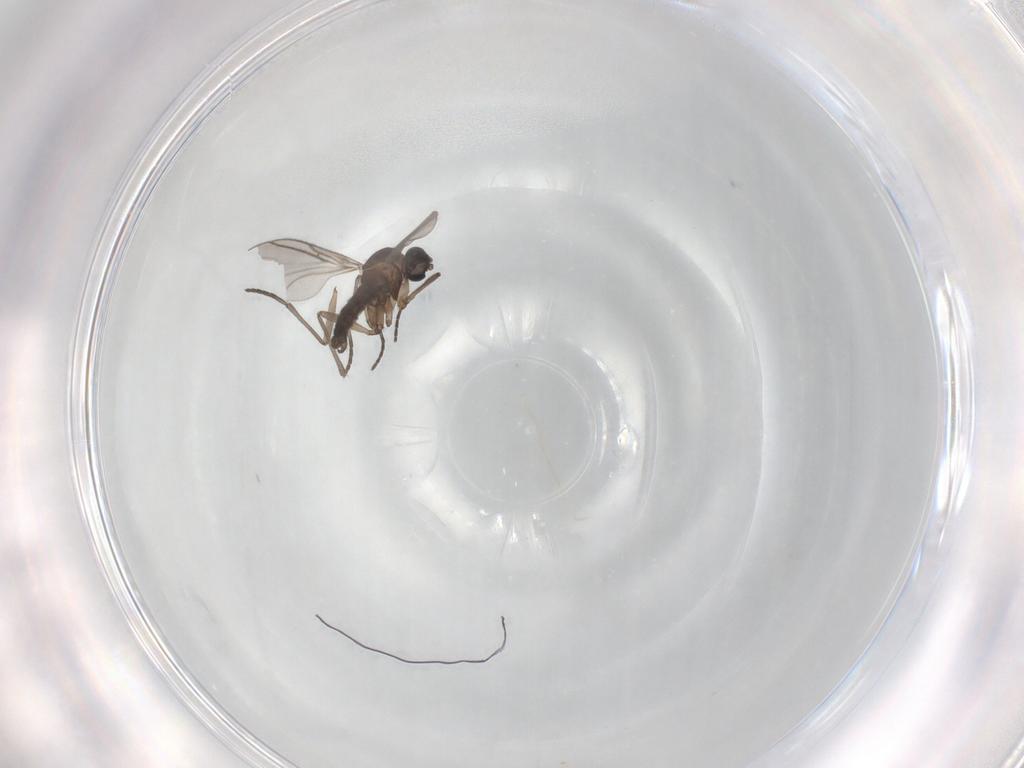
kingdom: Animalia
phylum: Arthropoda
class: Insecta
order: Diptera
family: Sciaridae
